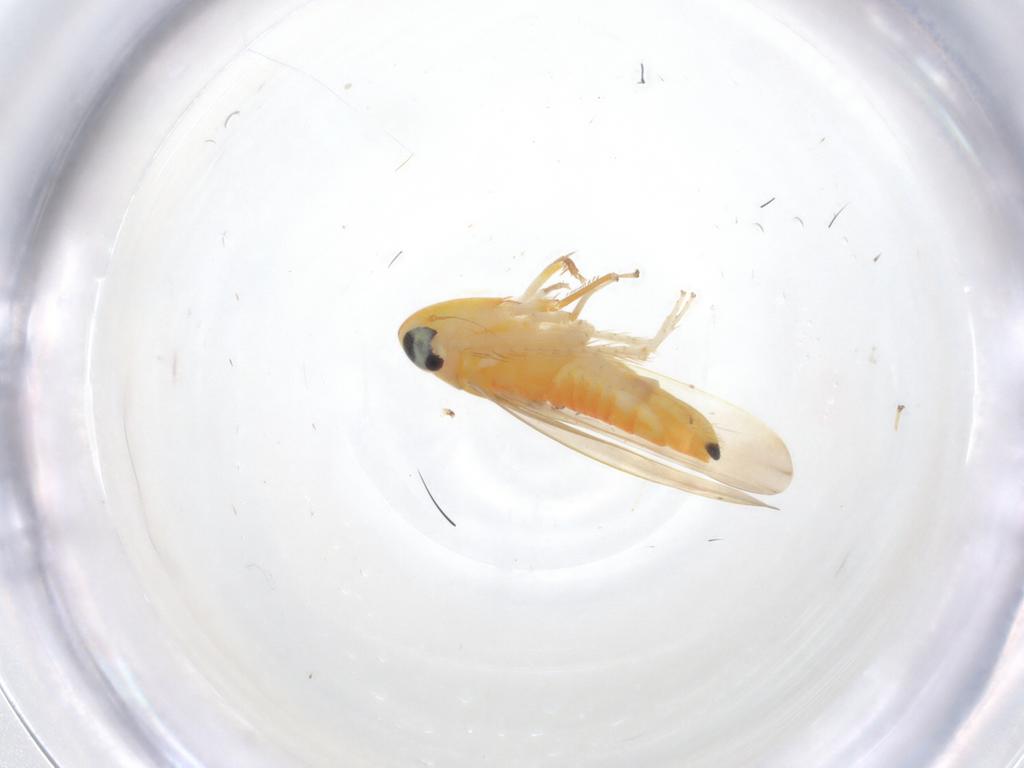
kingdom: Animalia
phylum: Arthropoda
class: Insecta
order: Hemiptera
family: Cicadellidae
